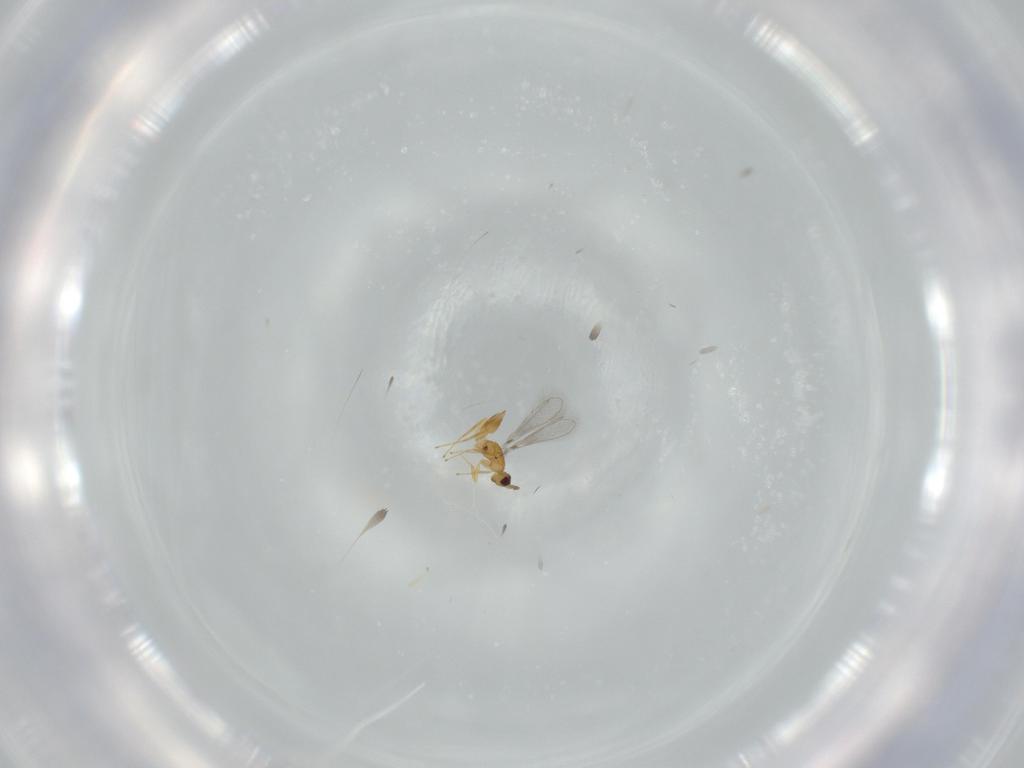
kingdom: Animalia
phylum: Arthropoda
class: Insecta
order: Hymenoptera
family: Mymaridae
